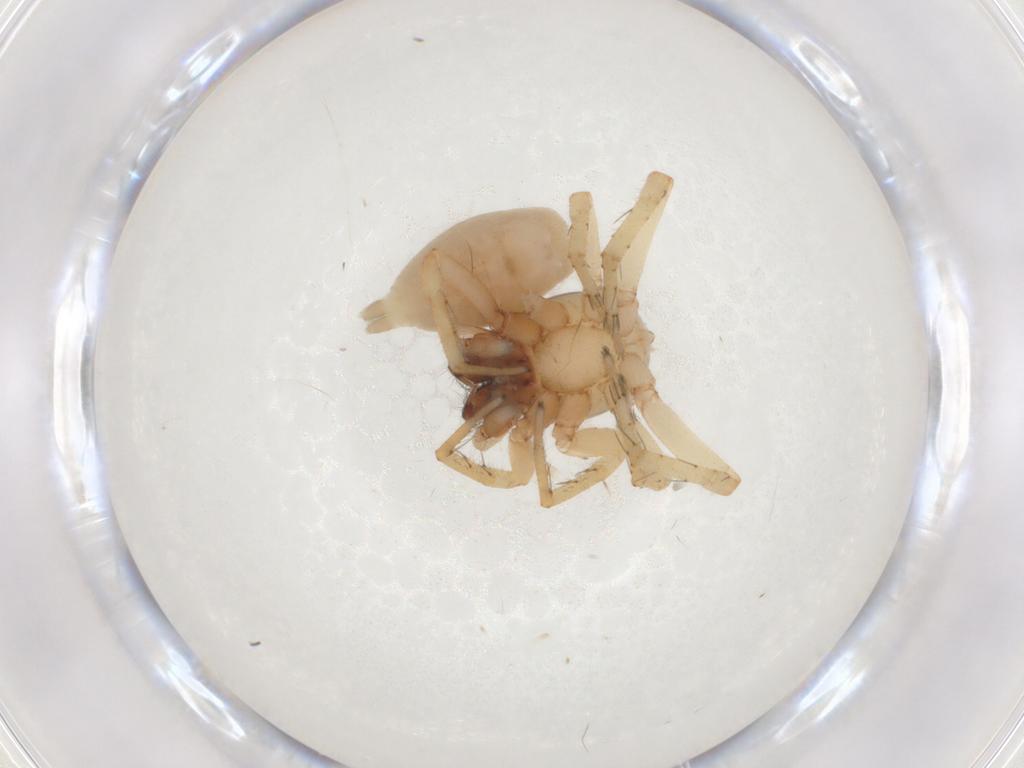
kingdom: Animalia
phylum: Arthropoda
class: Arachnida
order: Araneae
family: Clubionidae
